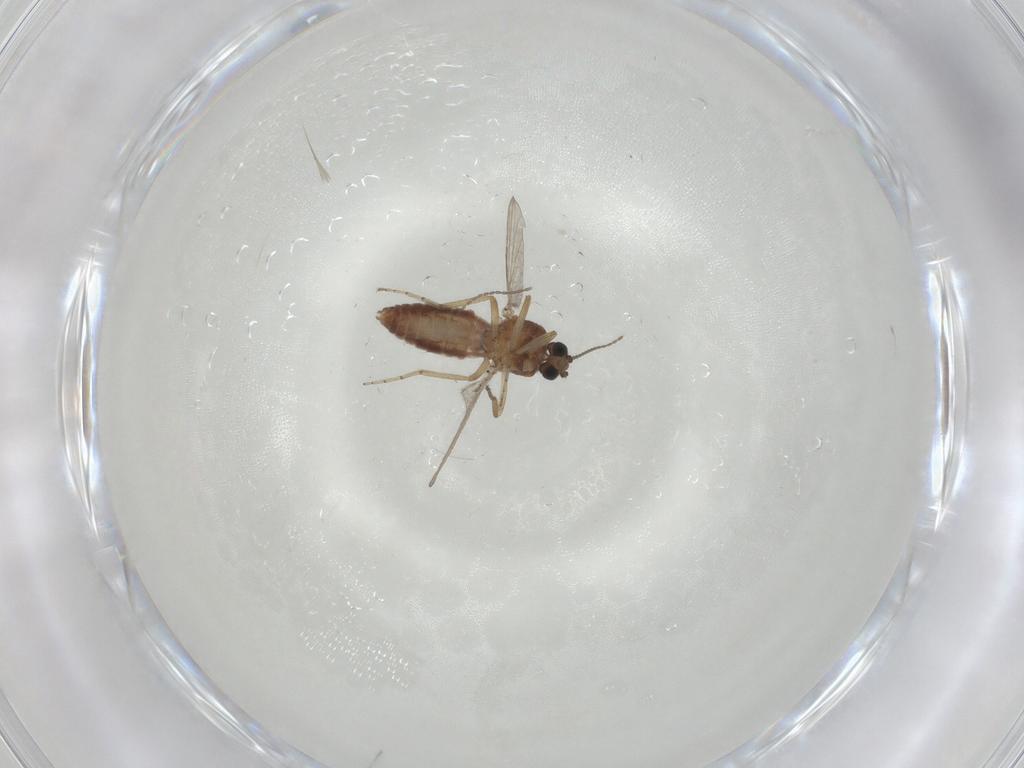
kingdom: Animalia
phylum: Arthropoda
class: Insecta
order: Diptera
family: Ceratopogonidae
